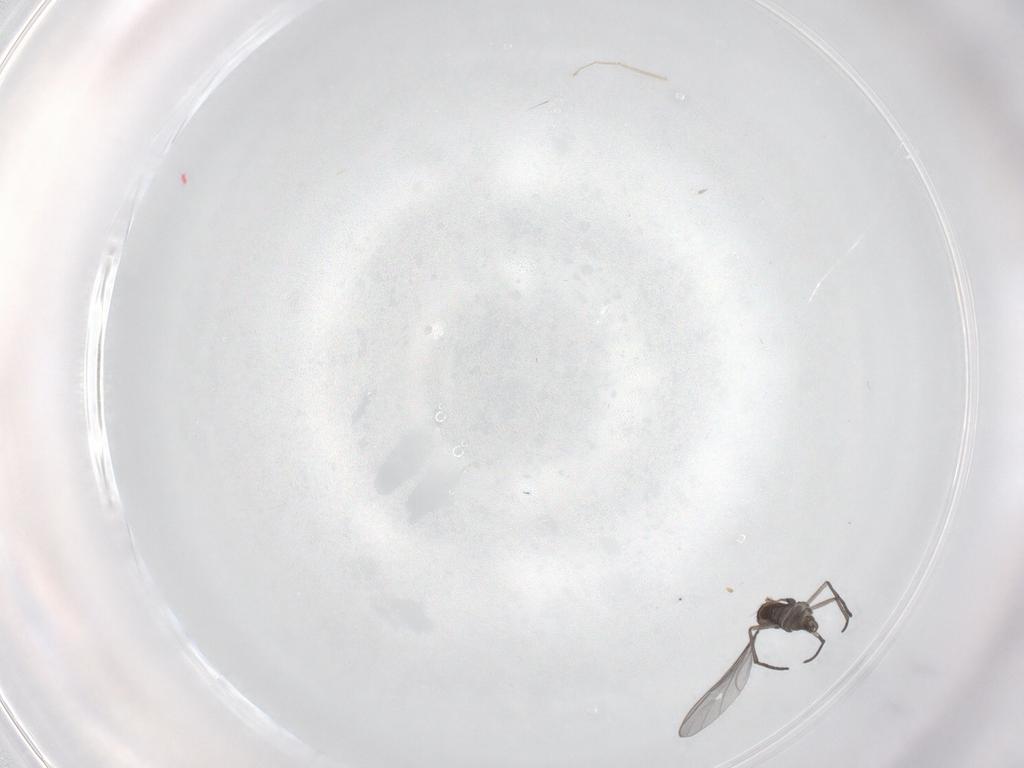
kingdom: Animalia
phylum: Arthropoda
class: Insecta
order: Diptera
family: Cecidomyiidae
